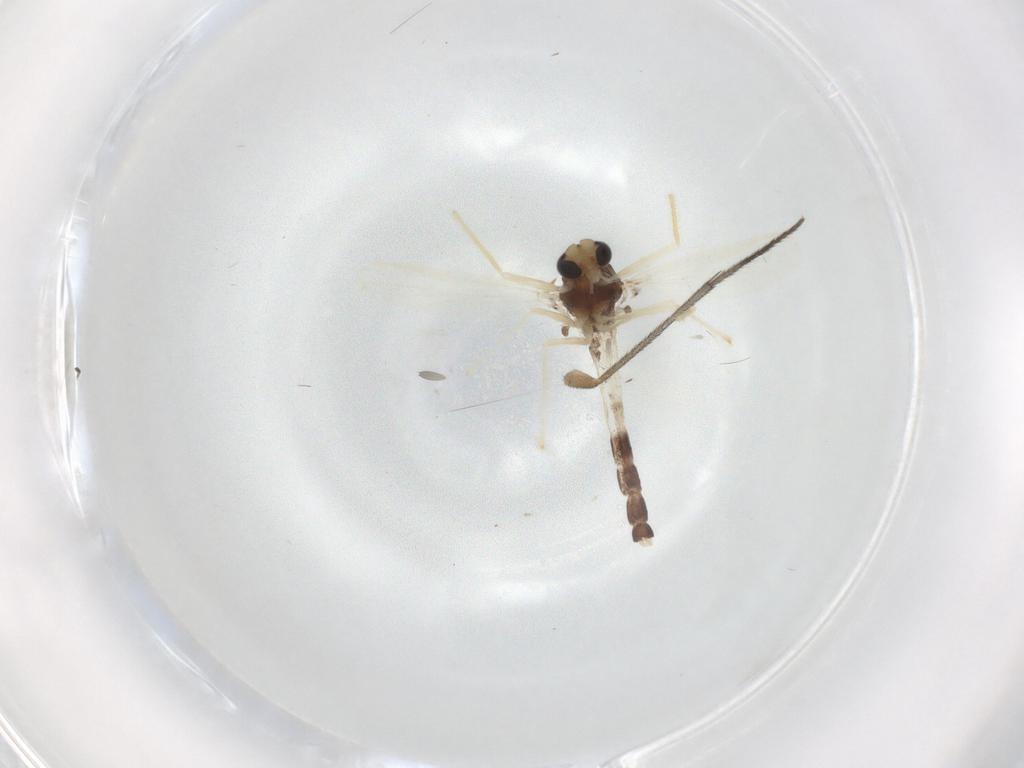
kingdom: Animalia
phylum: Arthropoda
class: Insecta
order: Diptera
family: Chironomidae
